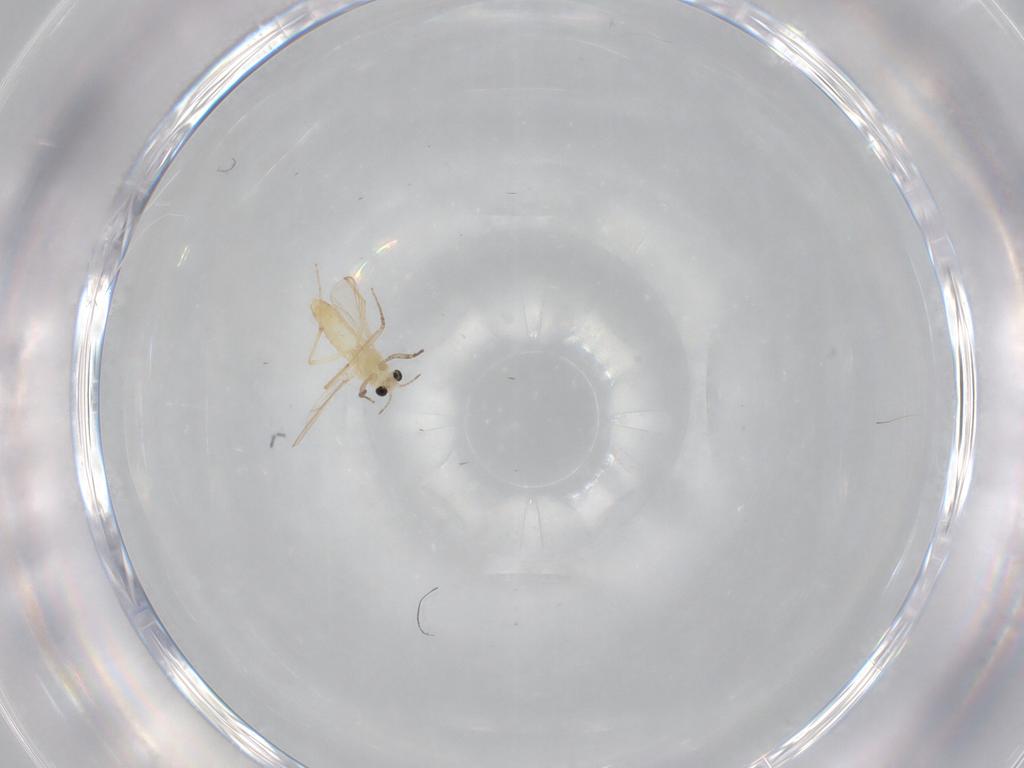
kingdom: Animalia
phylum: Arthropoda
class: Insecta
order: Diptera
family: Chironomidae
